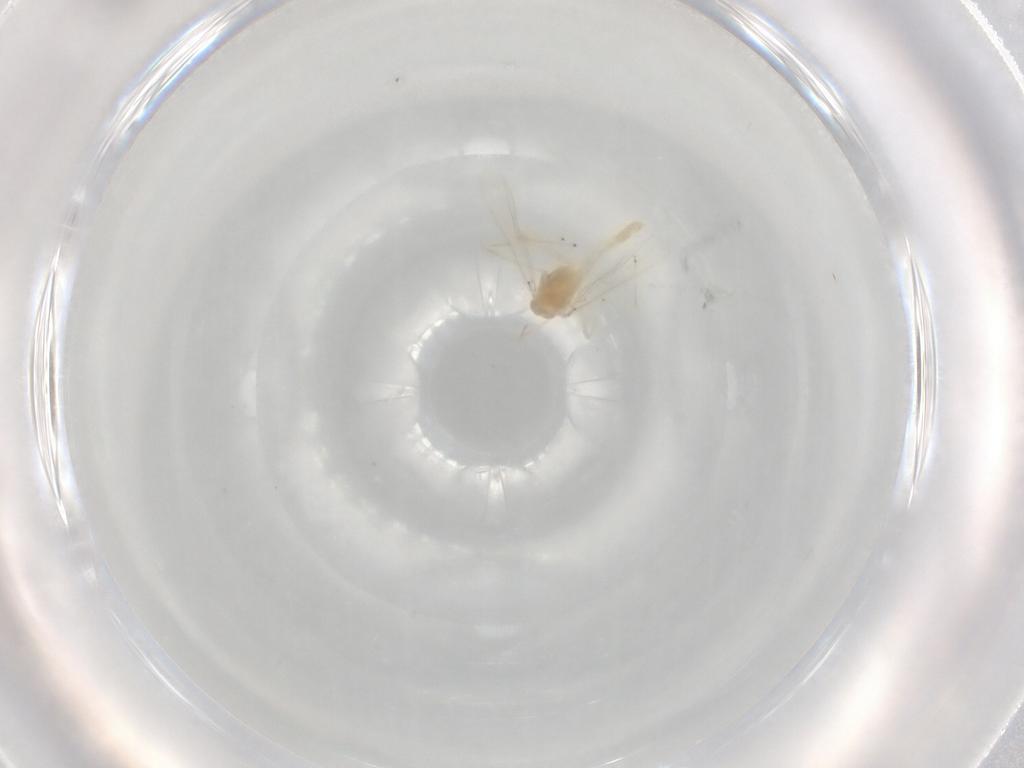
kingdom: Animalia
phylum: Arthropoda
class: Insecta
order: Diptera
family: Chironomidae
